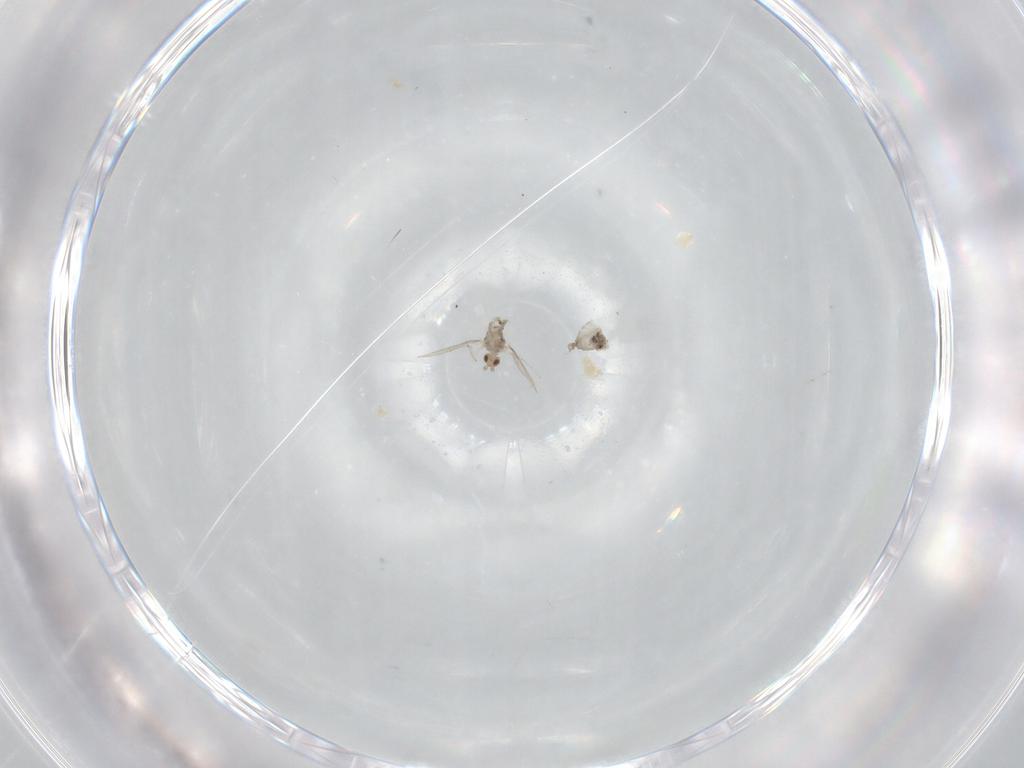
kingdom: Animalia
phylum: Arthropoda
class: Insecta
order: Diptera
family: Cecidomyiidae
